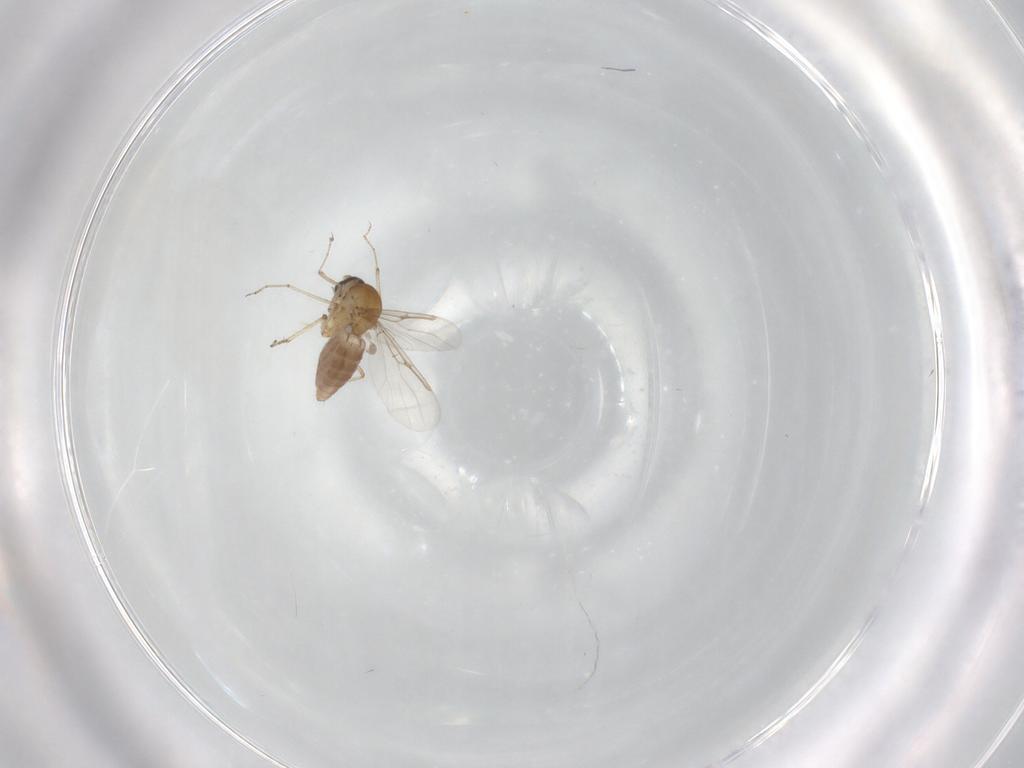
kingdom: Animalia
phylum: Arthropoda
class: Insecta
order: Diptera
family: Ceratopogonidae
